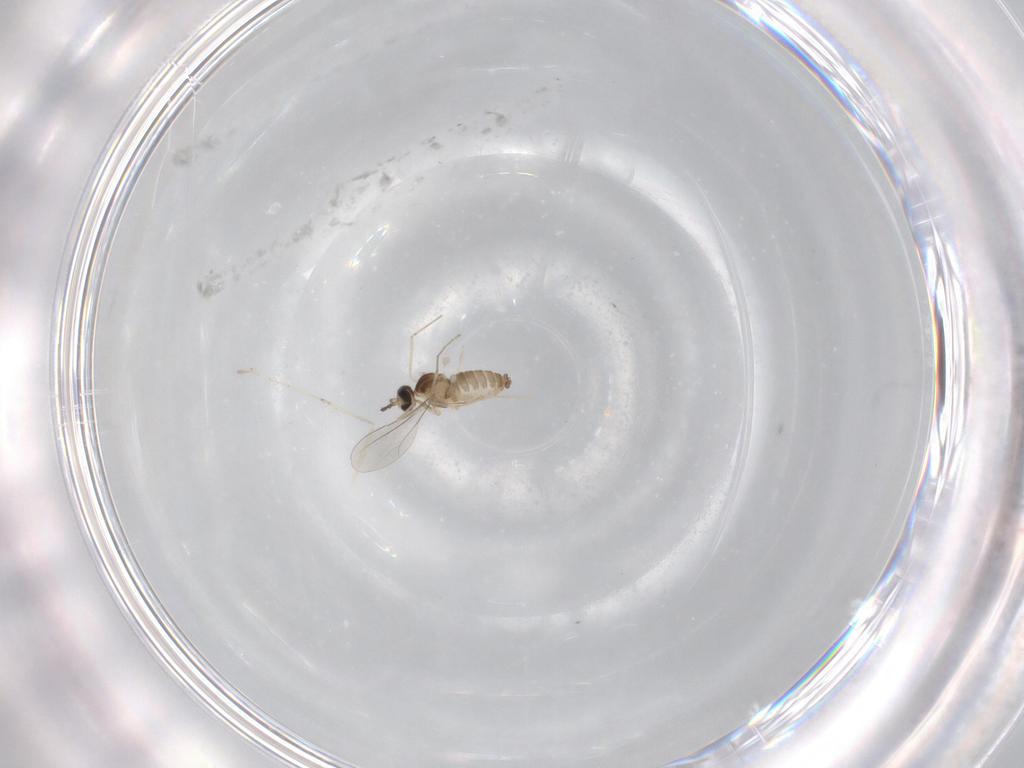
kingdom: Animalia
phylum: Arthropoda
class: Insecta
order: Diptera
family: Cecidomyiidae
